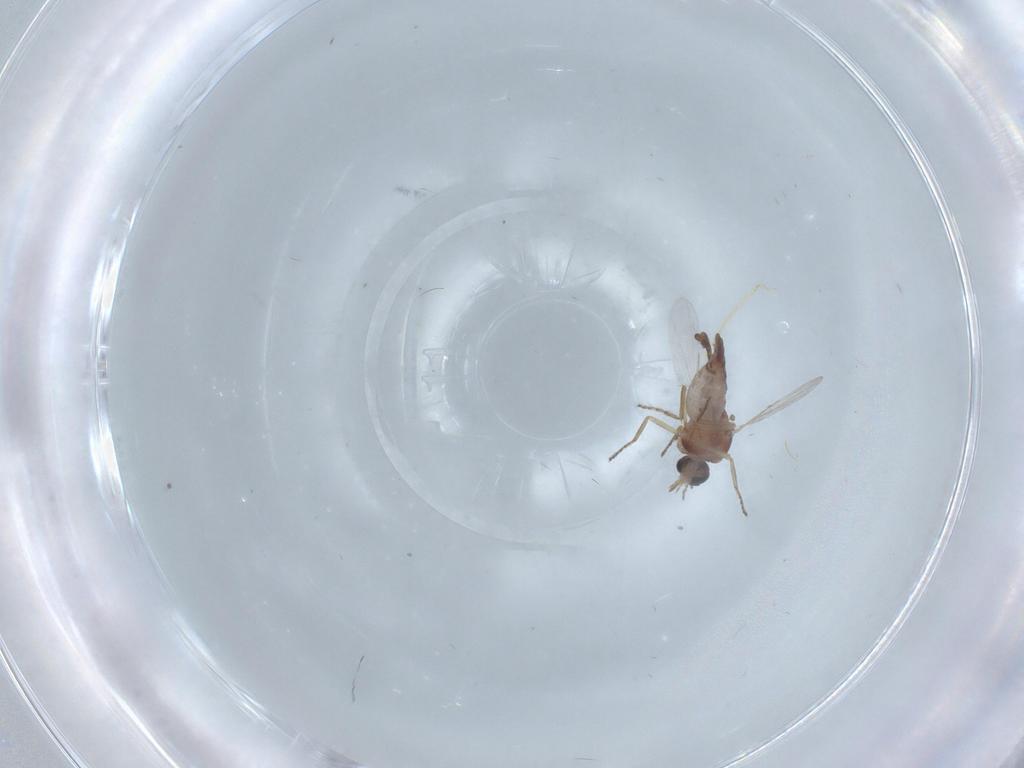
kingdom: Animalia
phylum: Arthropoda
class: Insecta
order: Diptera
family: Ceratopogonidae
